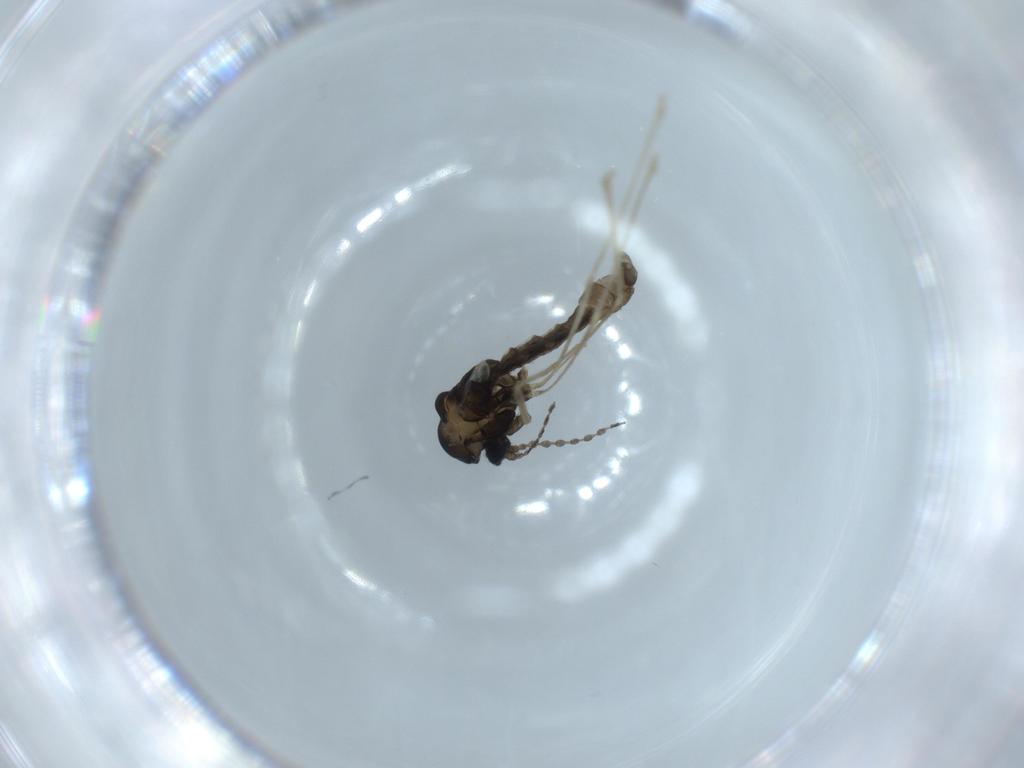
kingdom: Animalia
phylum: Arthropoda
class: Insecta
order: Diptera
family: Cecidomyiidae
